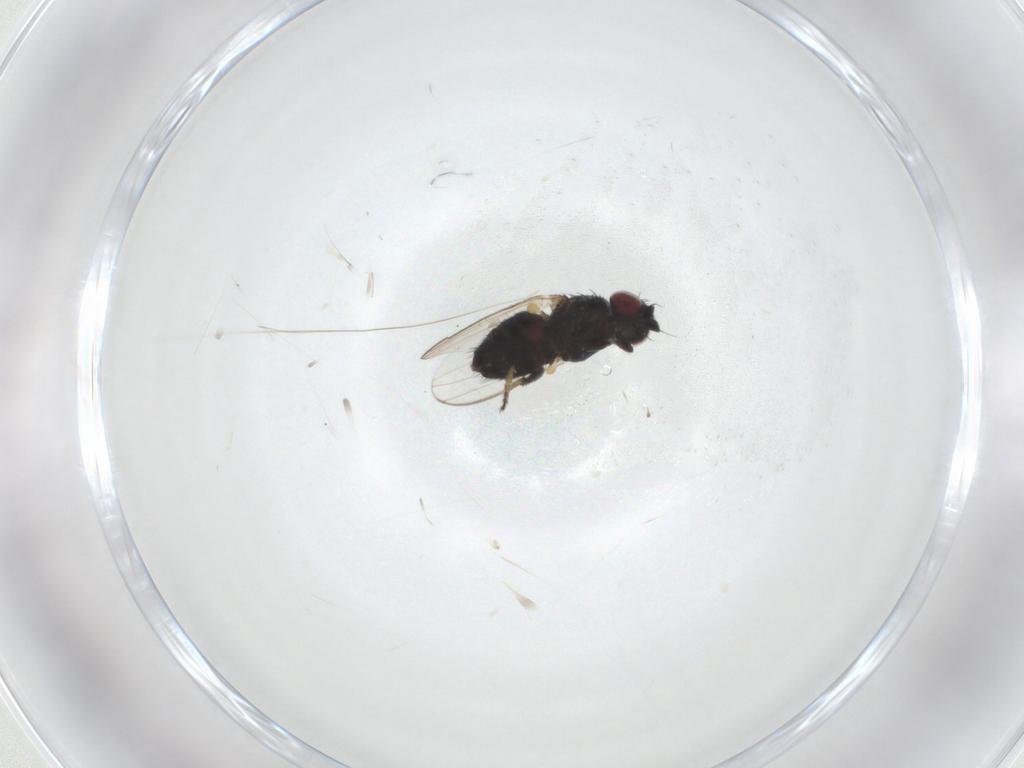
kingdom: Animalia
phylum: Arthropoda
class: Insecta
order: Diptera
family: Milichiidae
